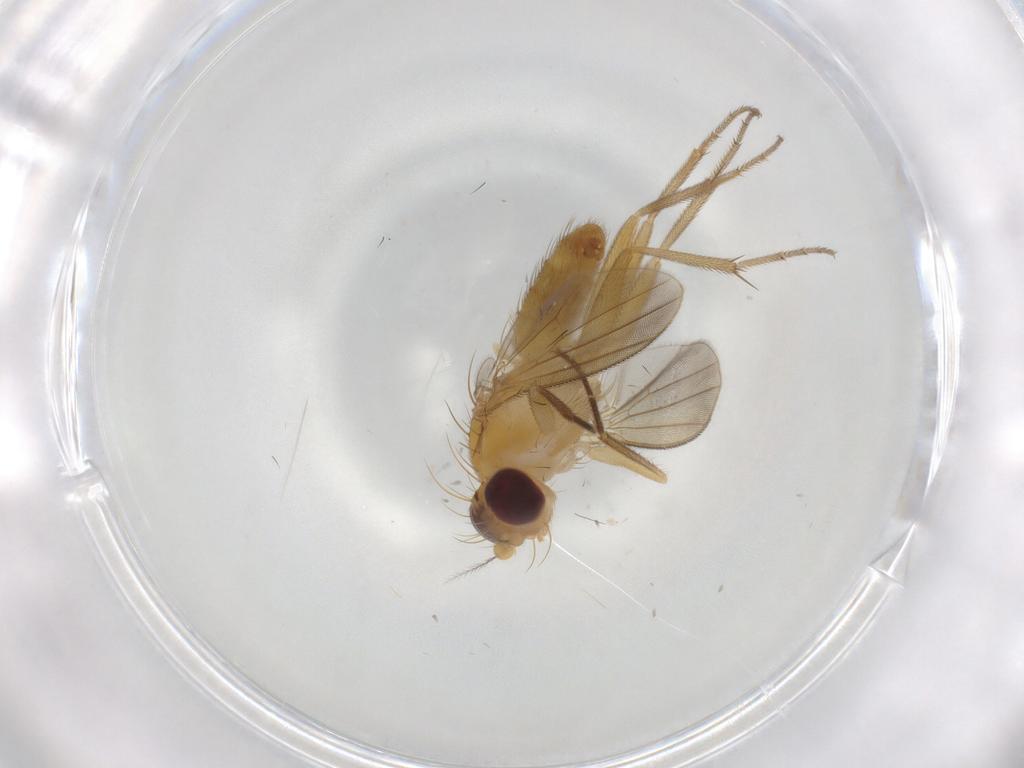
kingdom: Animalia
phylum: Arthropoda
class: Insecta
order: Diptera
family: Clusiidae
